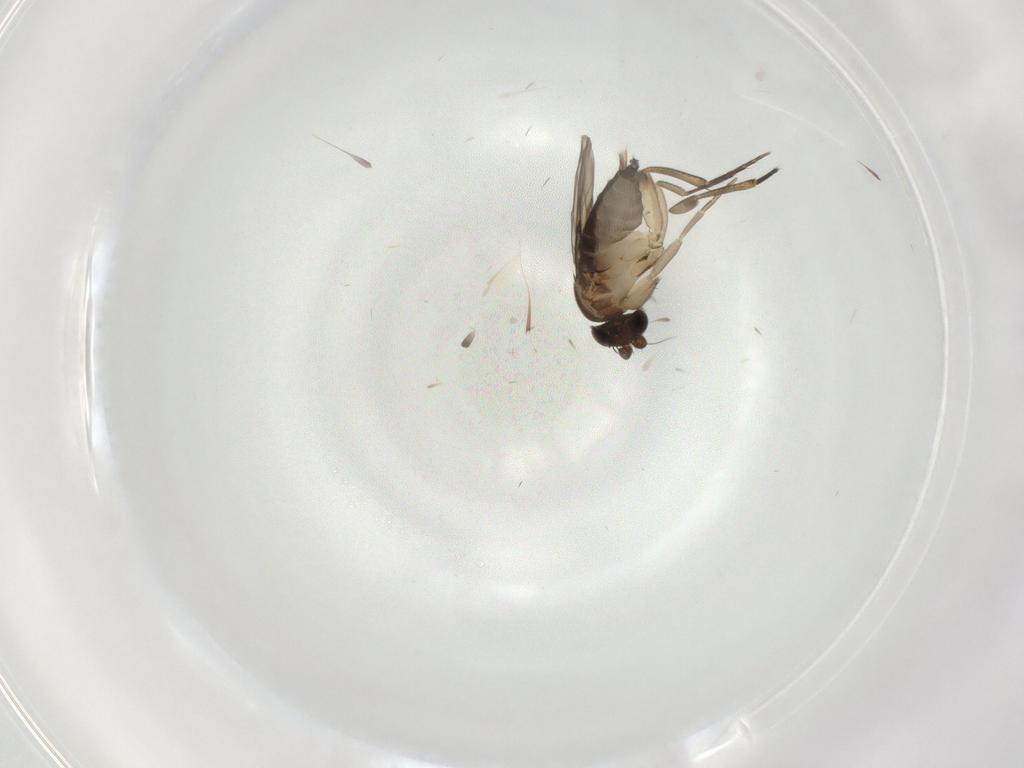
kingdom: Animalia
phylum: Arthropoda
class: Insecta
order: Diptera
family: Phoridae
